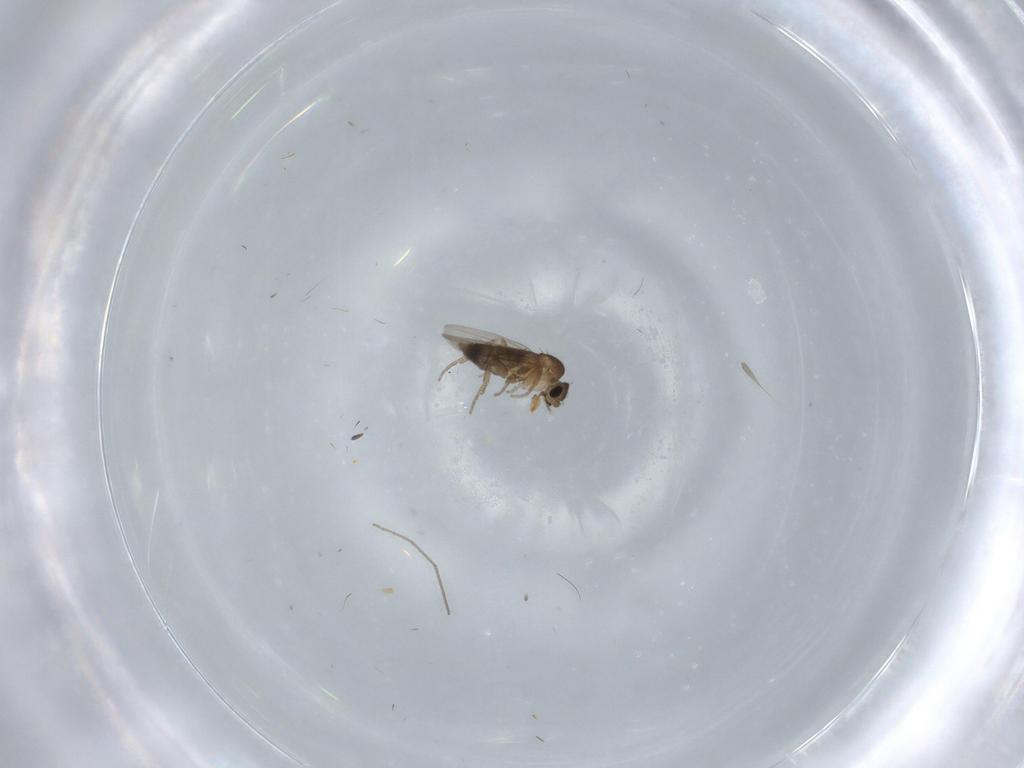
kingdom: Animalia
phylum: Arthropoda
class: Insecta
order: Diptera
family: Chironomidae
